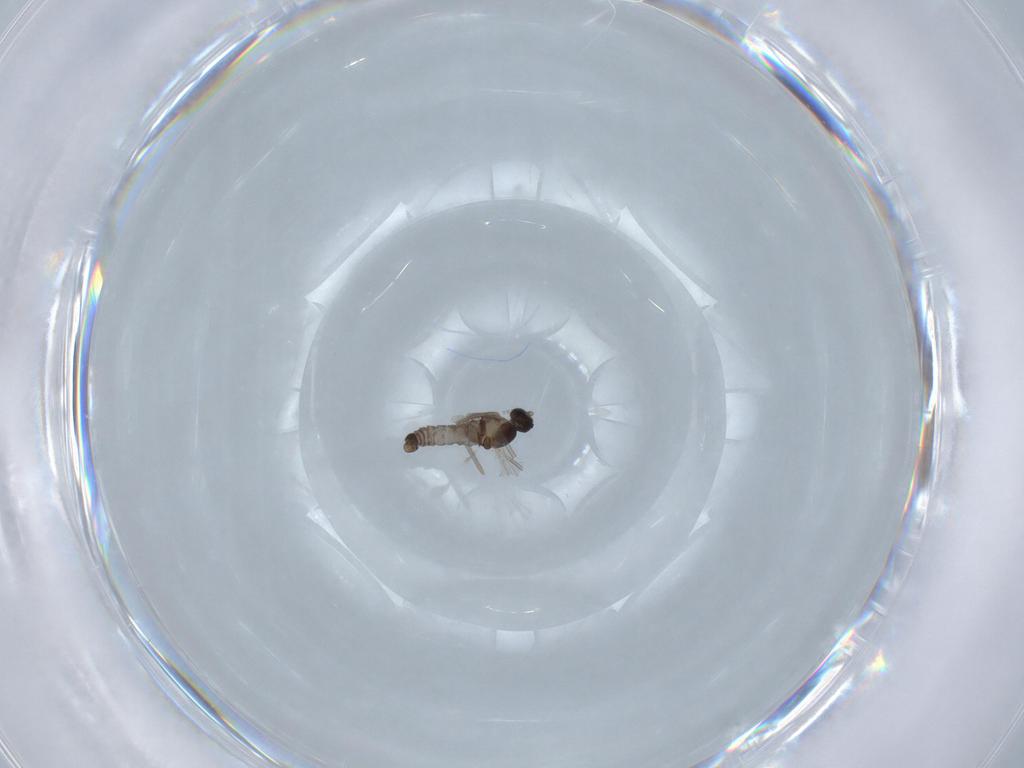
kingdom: Animalia
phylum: Arthropoda
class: Insecta
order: Diptera
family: Cecidomyiidae
